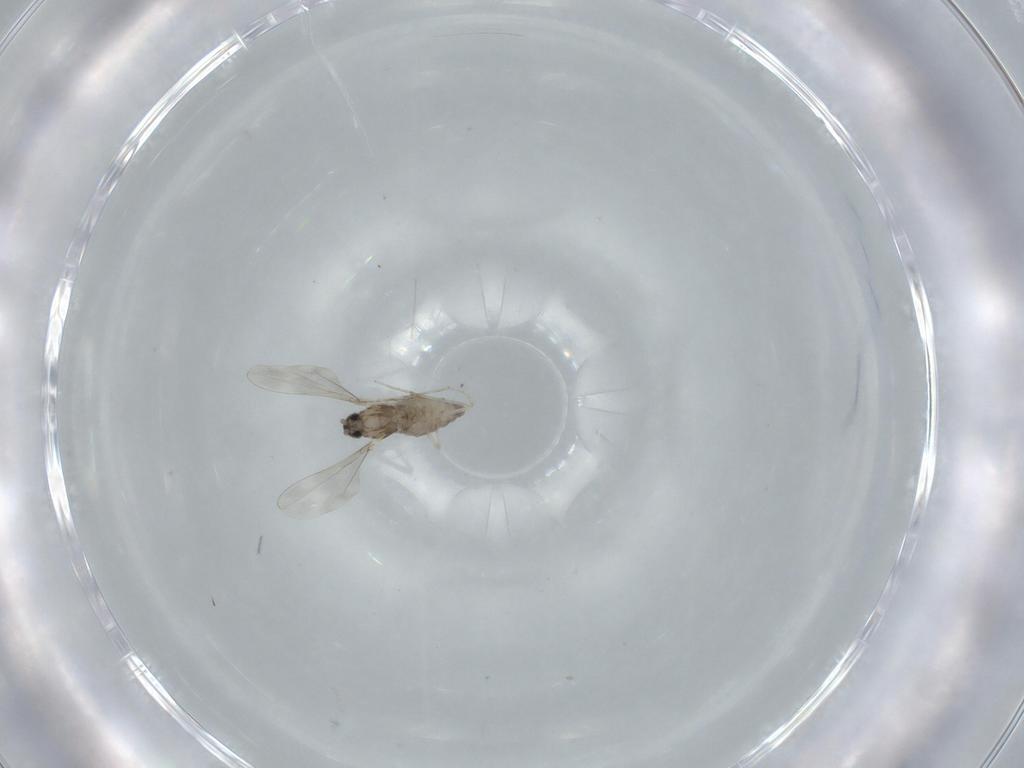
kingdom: Animalia
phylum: Arthropoda
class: Insecta
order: Diptera
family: Cecidomyiidae
